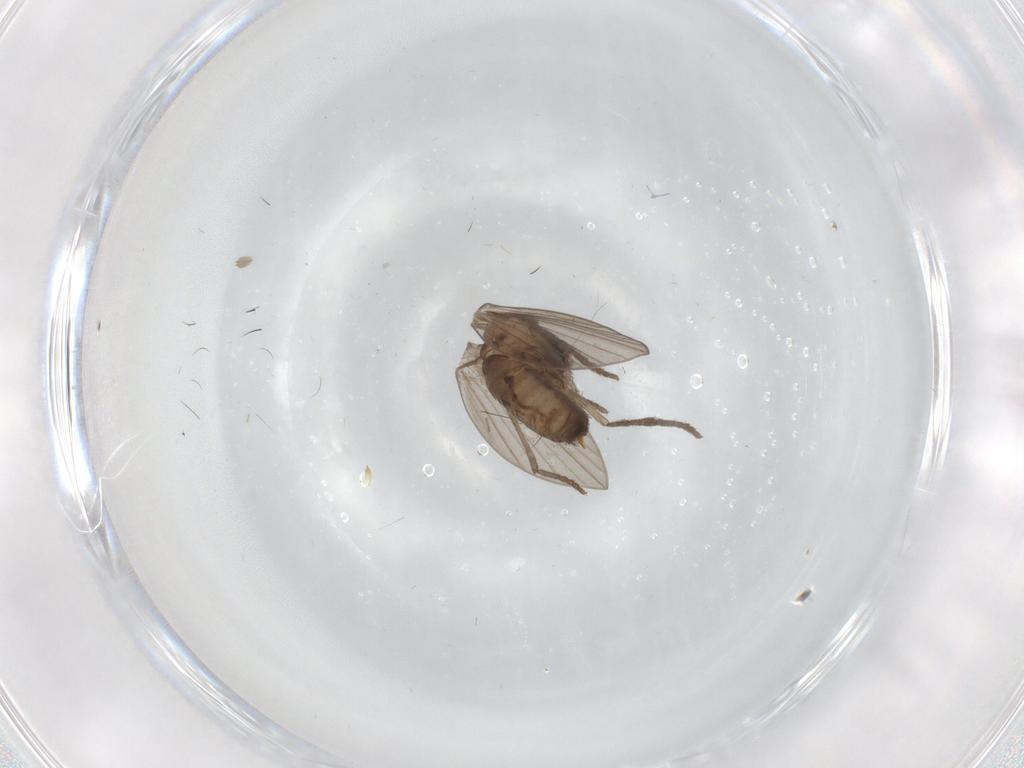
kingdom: Animalia
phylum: Arthropoda
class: Insecta
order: Diptera
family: Psychodidae
